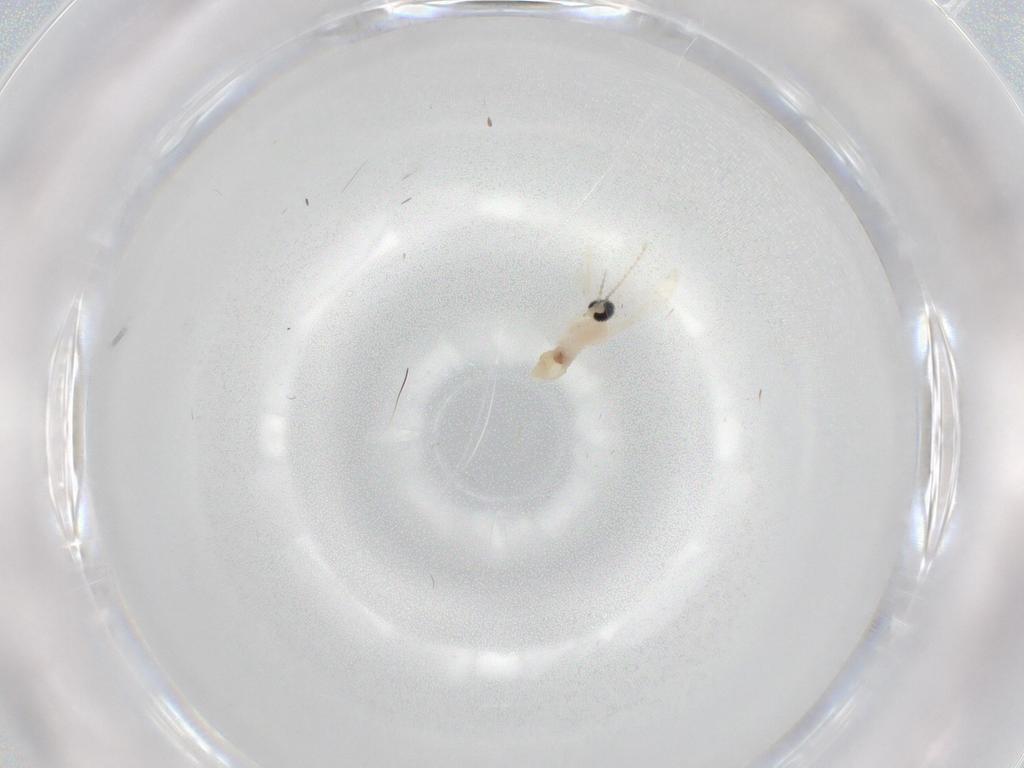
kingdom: Animalia
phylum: Arthropoda
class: Insecta
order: Diptera
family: Cecidomyiidae
